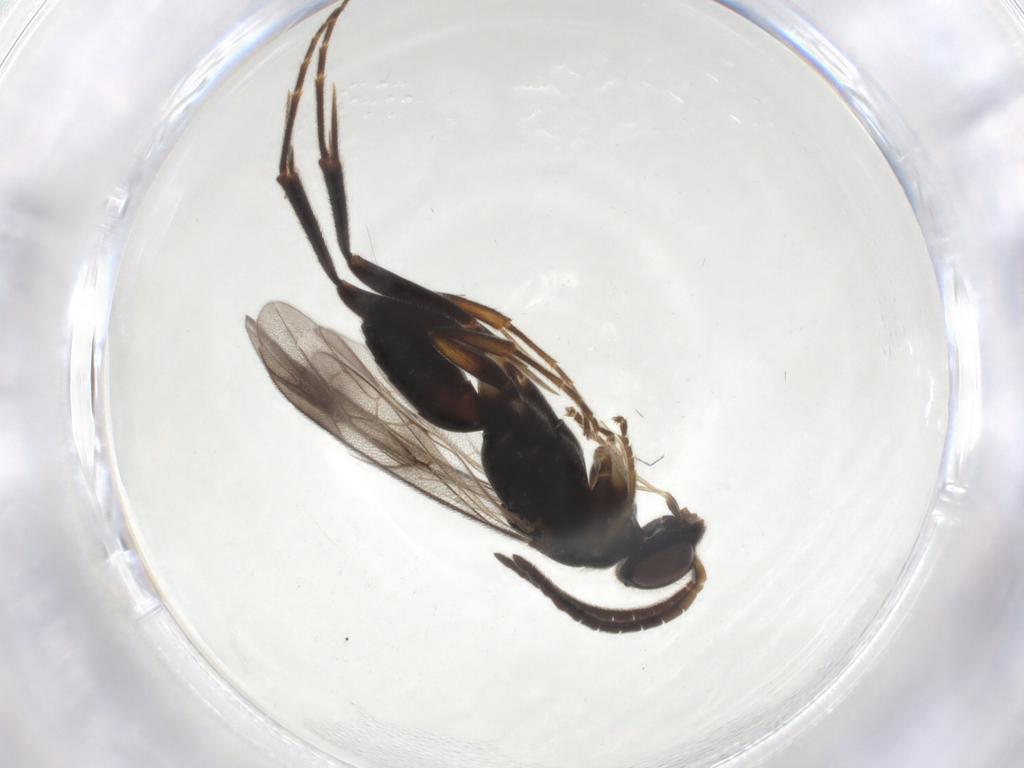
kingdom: Animalia
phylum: Arthropoda
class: Insecta
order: Hymenoptera
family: Pompilidae
